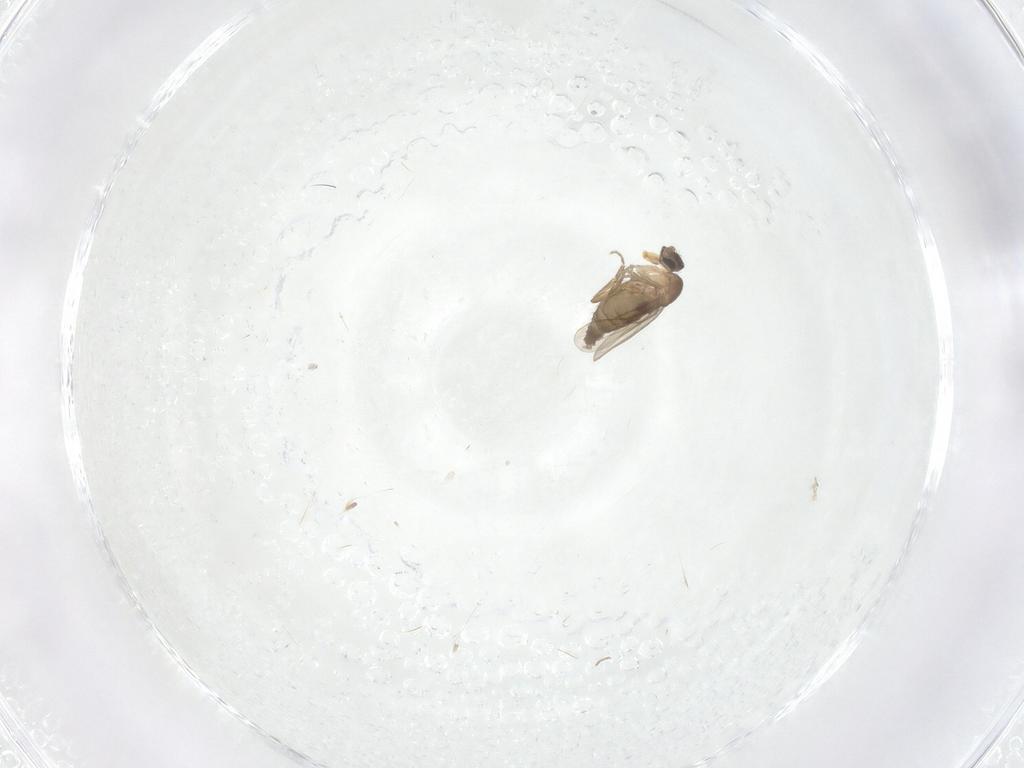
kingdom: Animalia
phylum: Arthropoda
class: Insecta
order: Diptera
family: Phoridae
